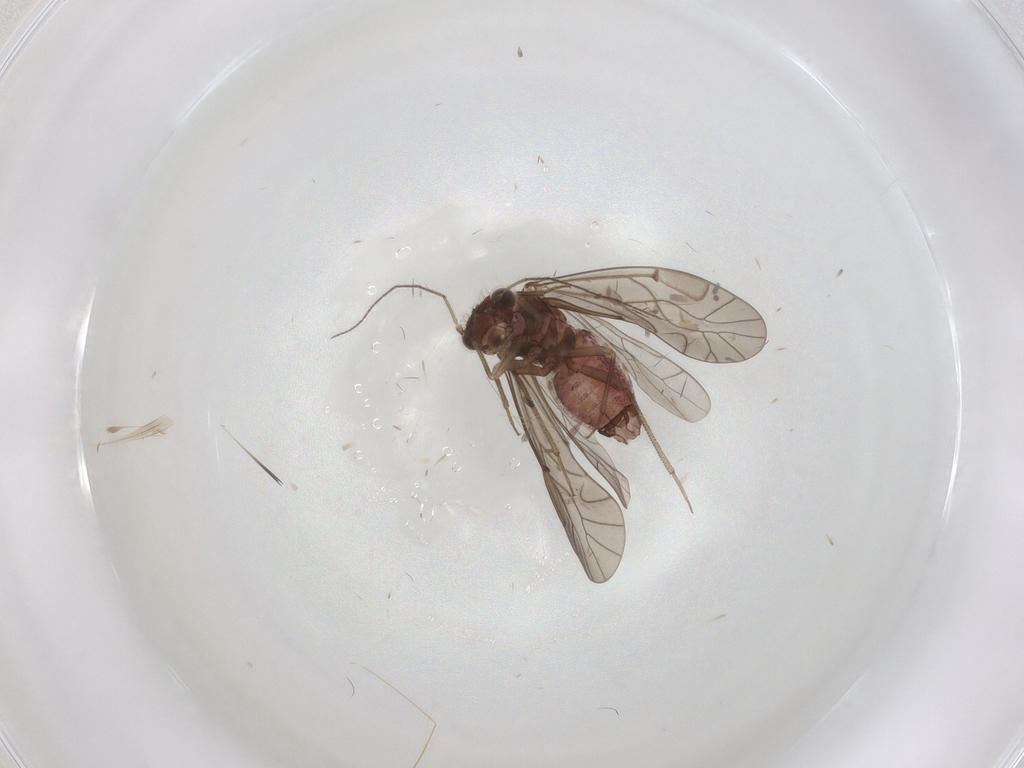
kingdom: Animalia
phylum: Arthropoda
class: Insecta
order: Psocodea
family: Lachesillidae
